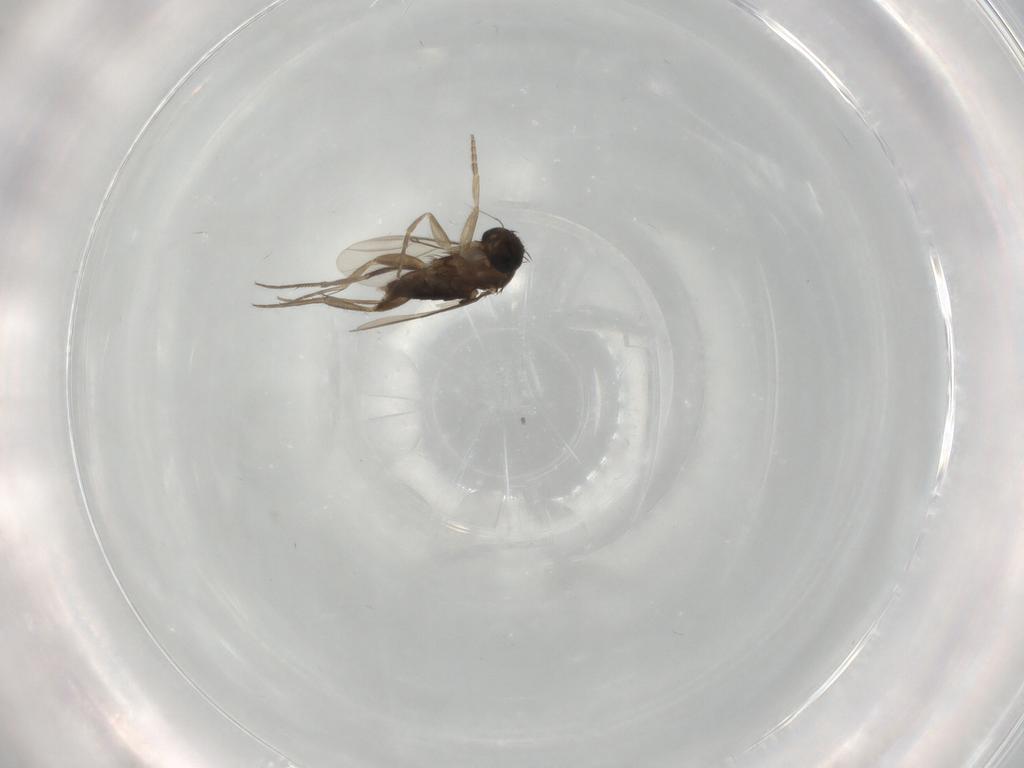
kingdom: Animalia
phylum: Arthropoda
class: Insecta
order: Diptera
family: Phoridae
